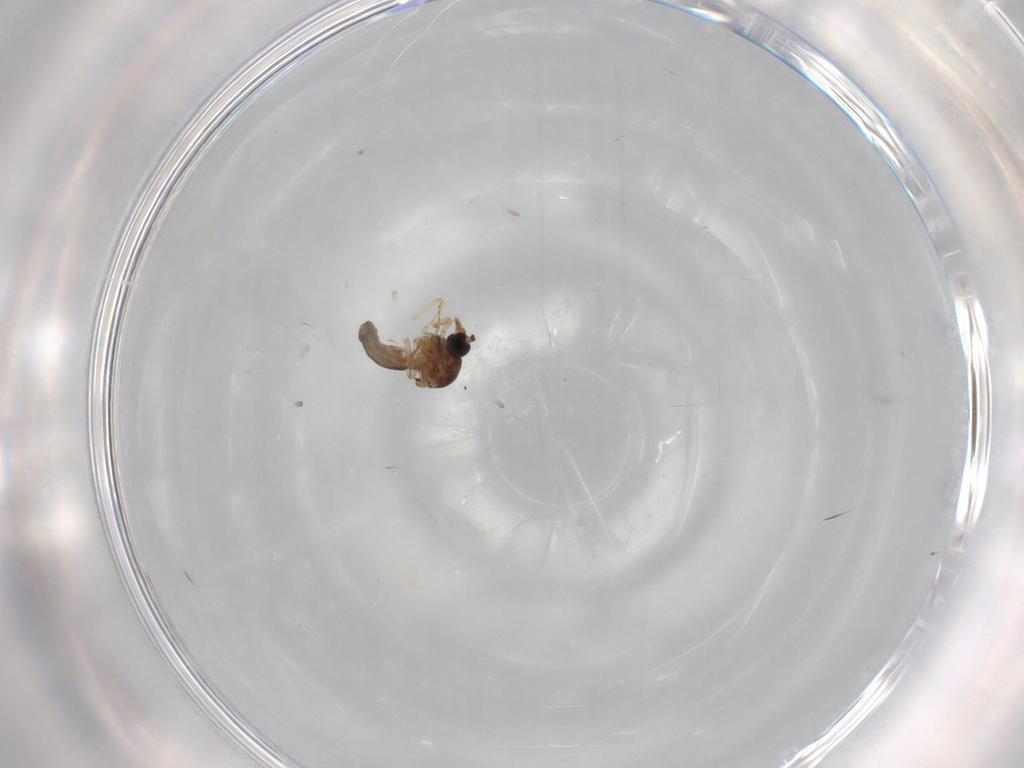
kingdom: Animalia
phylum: Arthropoda
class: Insecta
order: Diptera
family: Ceratopogonidae
